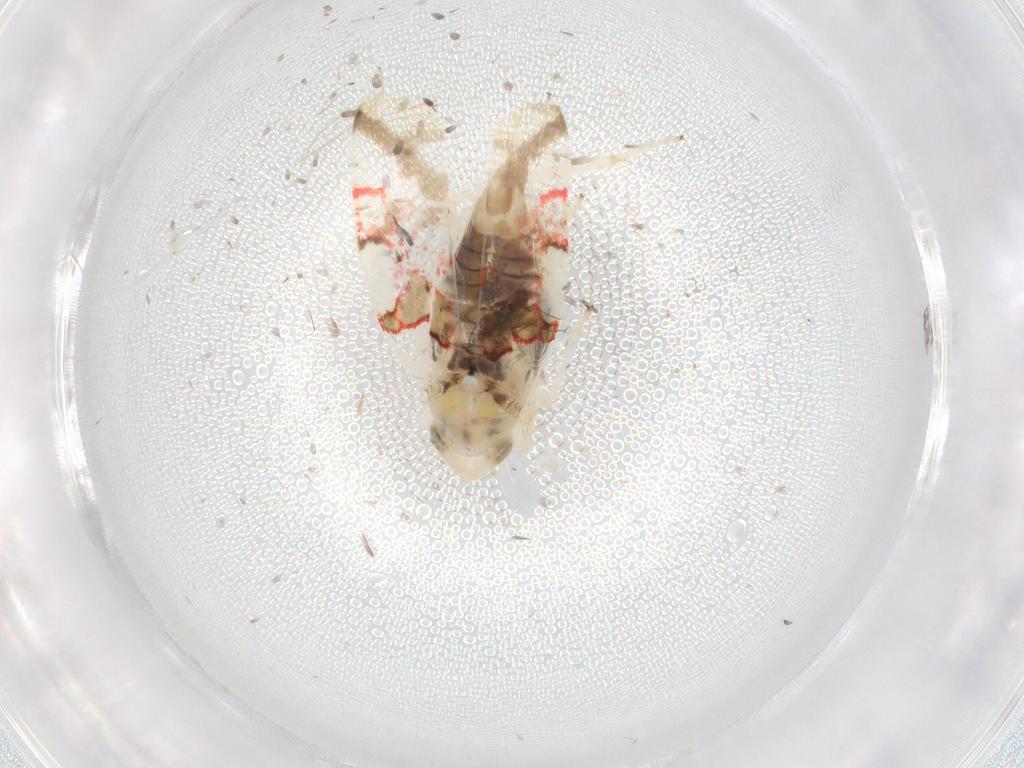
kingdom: Animalia
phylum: Arthropoda
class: Insecta
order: Hemiptera
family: Cicadellidae
